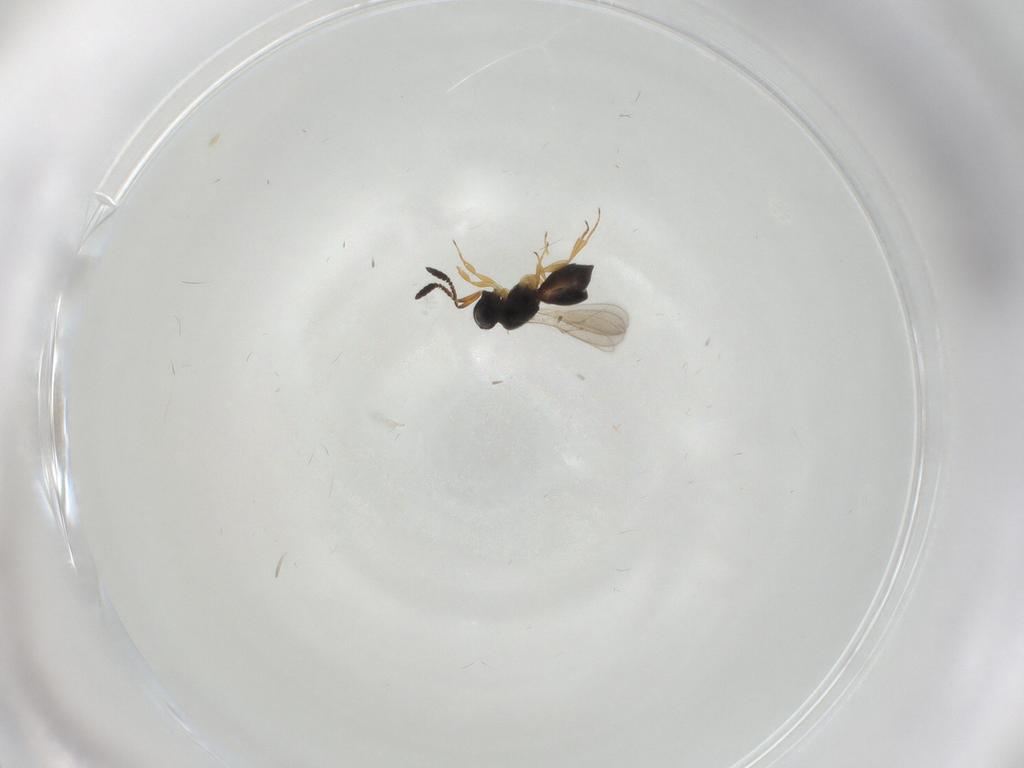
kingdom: Animalia
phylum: Arthropoda
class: Insecta
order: Hymenoptera
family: Scelionidae
